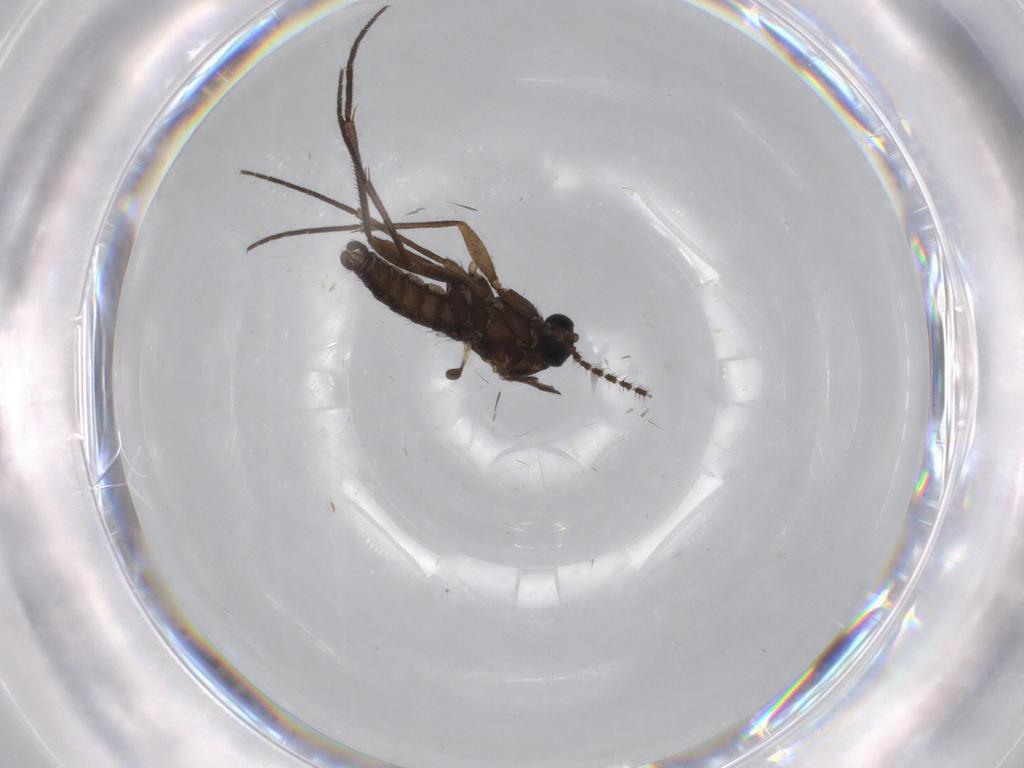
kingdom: Animalia
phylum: Arthropoda
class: Insecta
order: Diptera
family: Sciaridae
